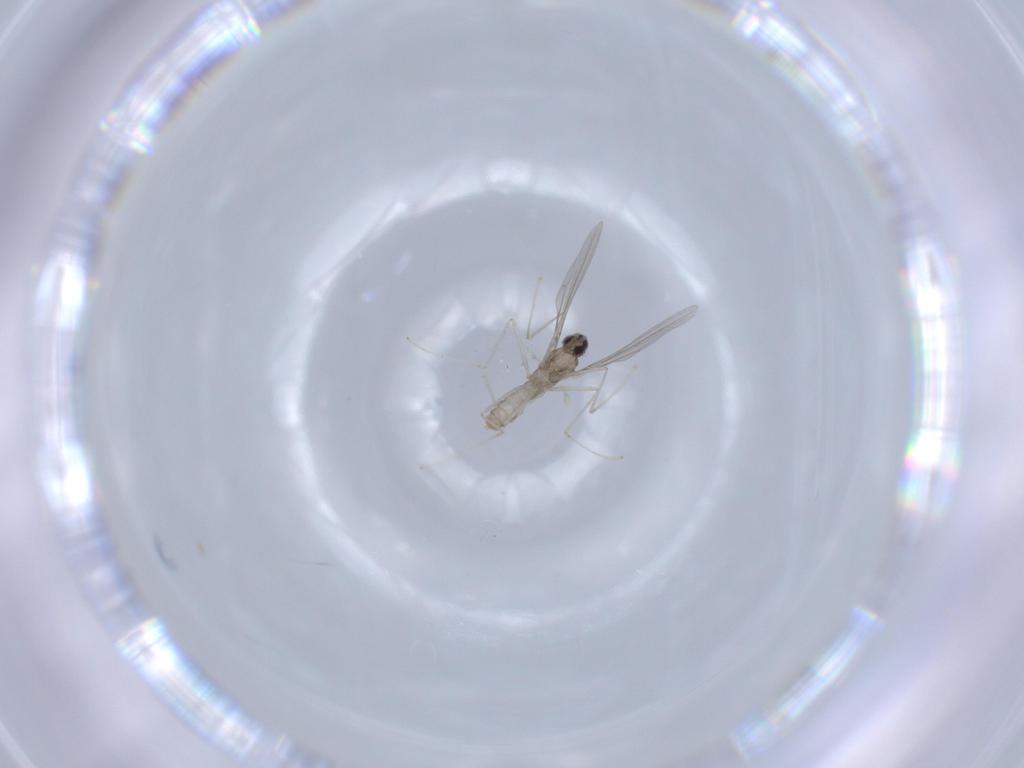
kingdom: Animalia
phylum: Arthropoda
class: Insecta
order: Diptera
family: Cecidomyiidae
